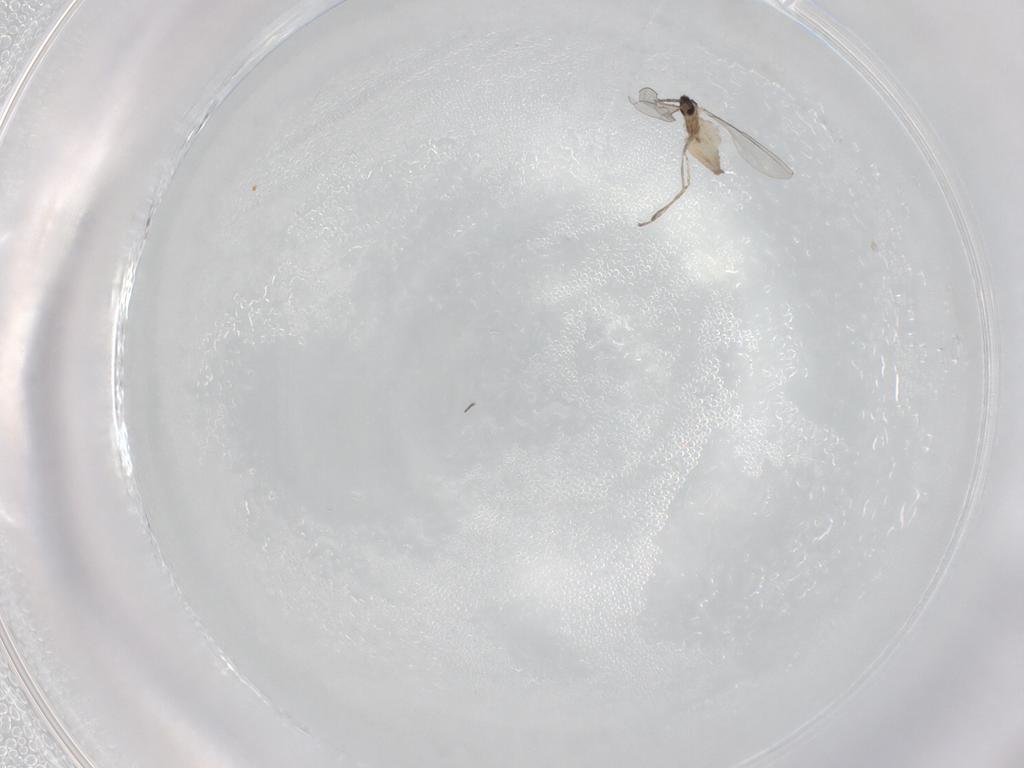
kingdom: Animalia
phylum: Arthropoda
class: Insecta
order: Diptera
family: Cecidomyiidae
